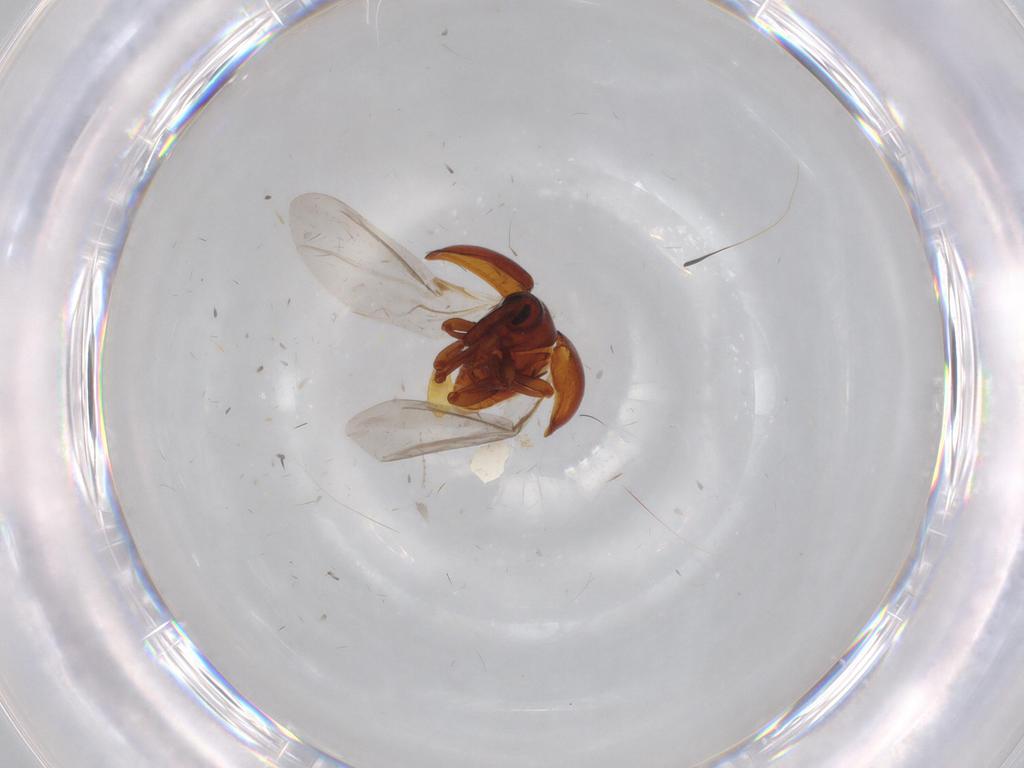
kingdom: Animalia
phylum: Arthropoda
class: Insecta
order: Coleoptera
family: Curculionidae
